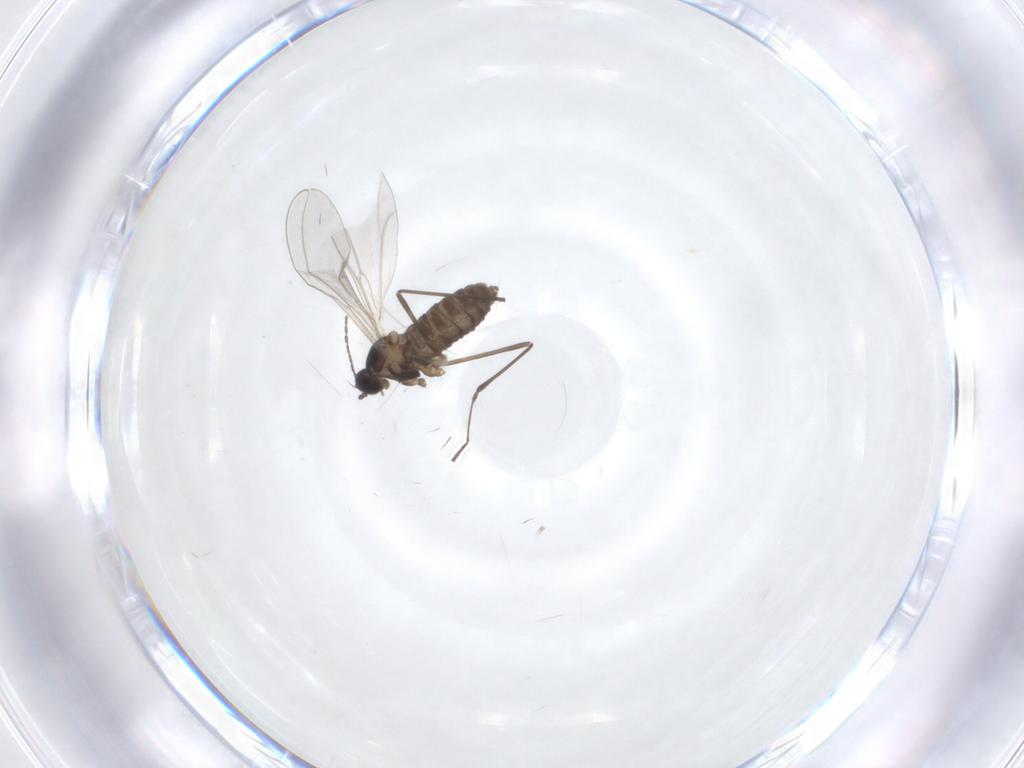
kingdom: Animalia
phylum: Arthropoda
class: Insecta
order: Diptera
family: Cecidomyiidae
